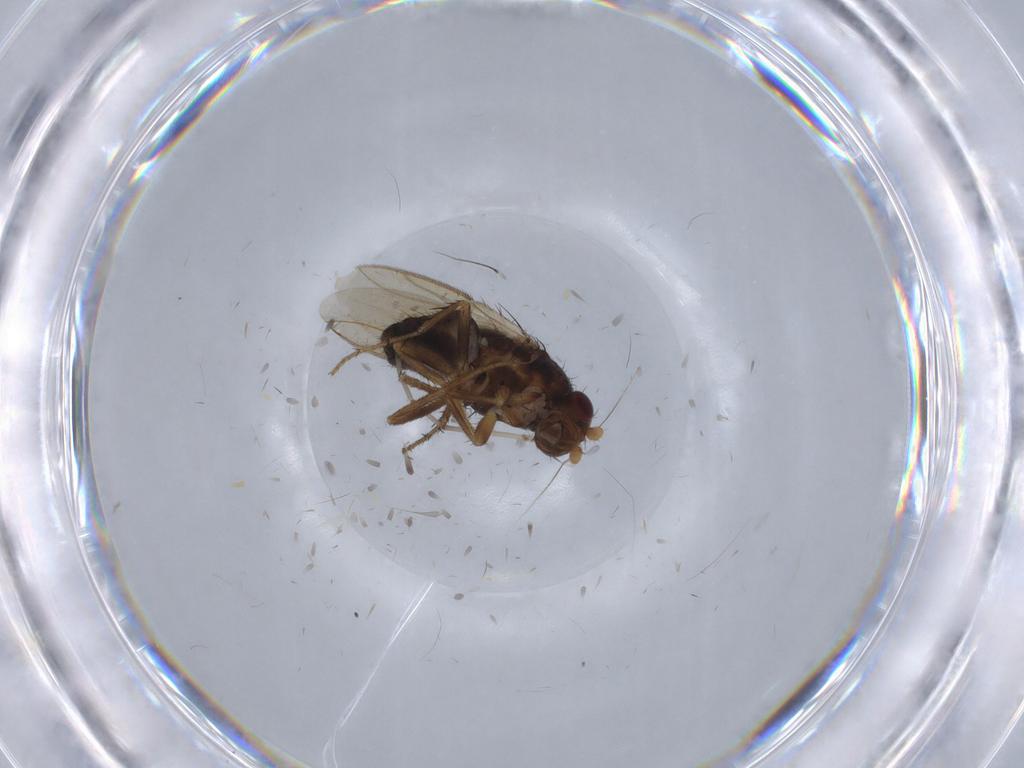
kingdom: Animalia
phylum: Arthropoda
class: Insecta
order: Diptera
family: Sphaeroceridae
